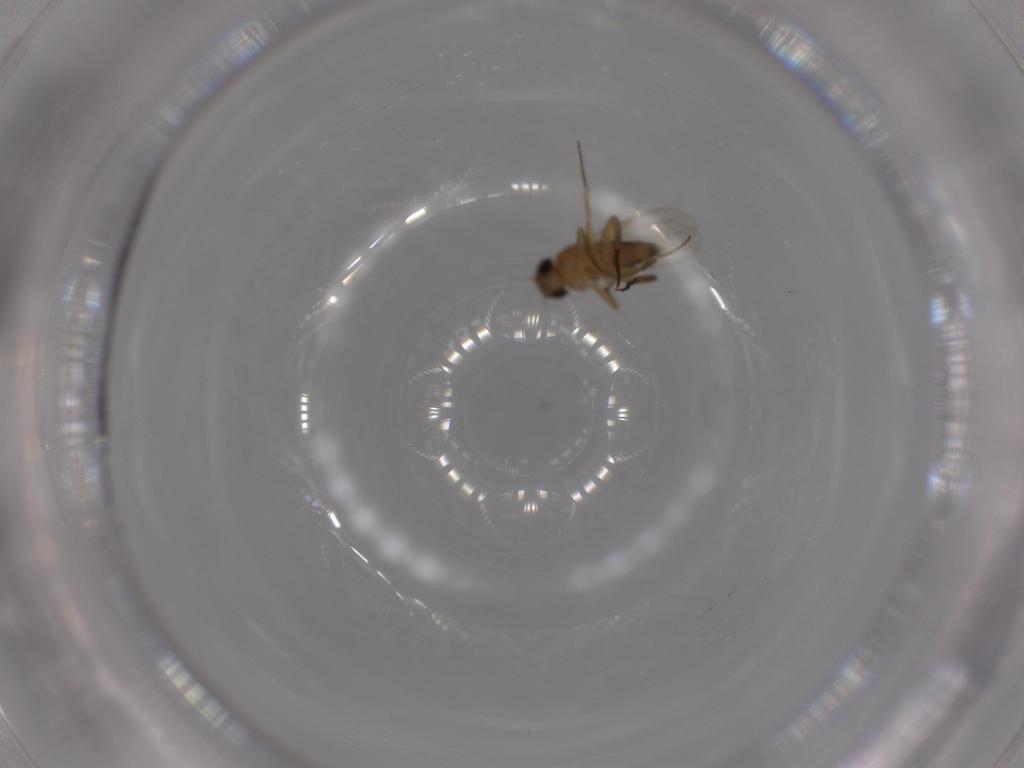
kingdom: Animalia
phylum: Arthropoda
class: Insecta
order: Diptera
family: Phoridae
